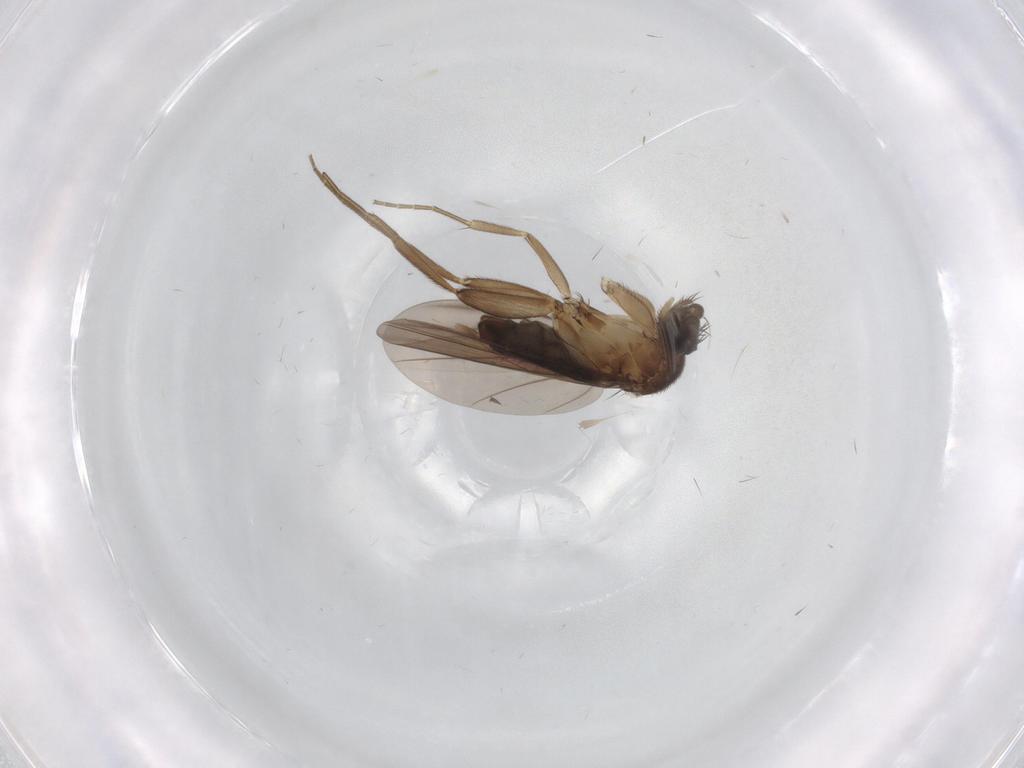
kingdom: Animalia
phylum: Arthropoda
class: Insecta
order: Diptera
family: Phoridae
